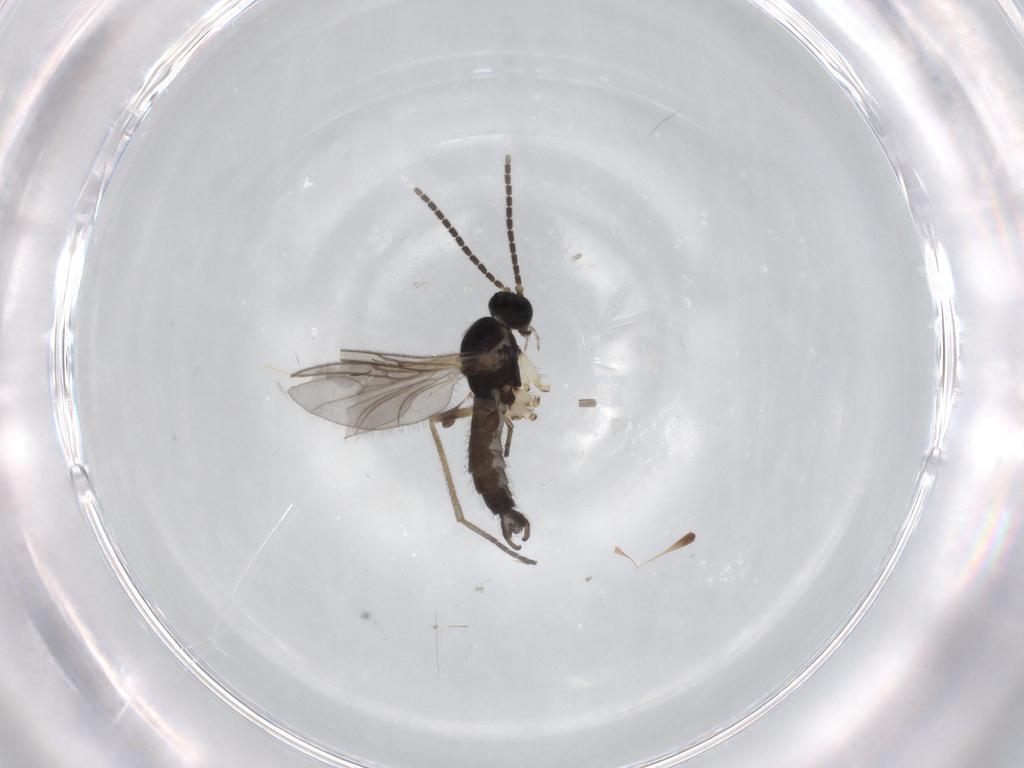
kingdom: Animalia
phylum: Arthropoda
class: Insecta
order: Diptera
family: Sciaridae
